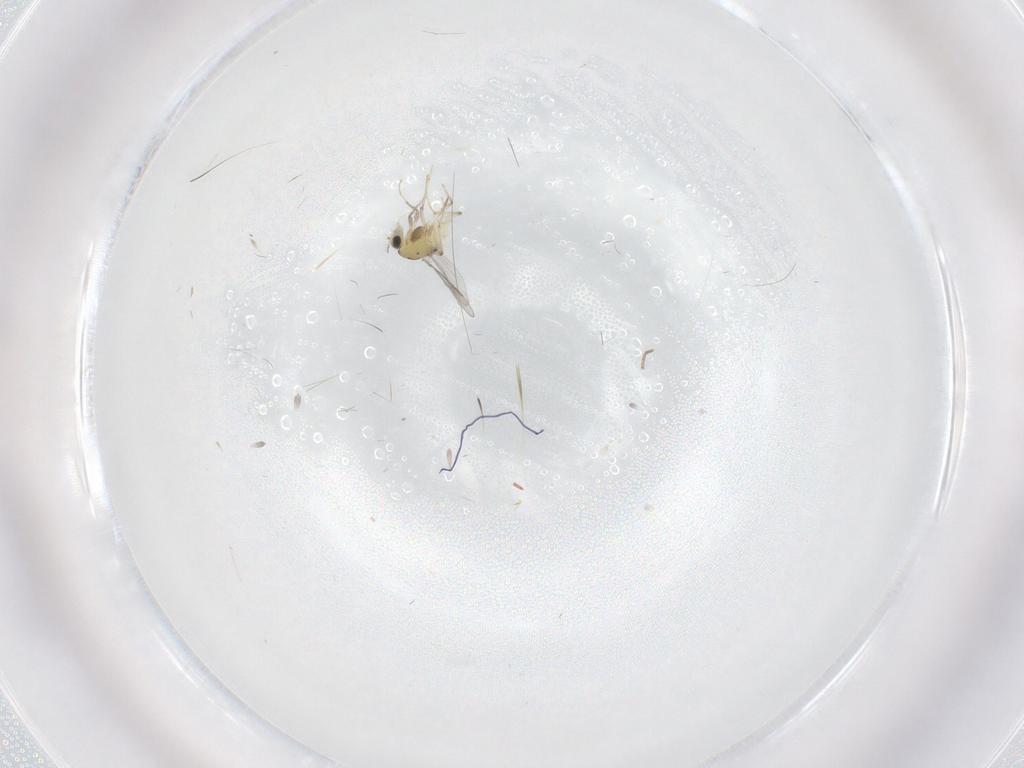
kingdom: Animalia
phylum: Arthropoda
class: Insecta
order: Diptera
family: Chironomidae
